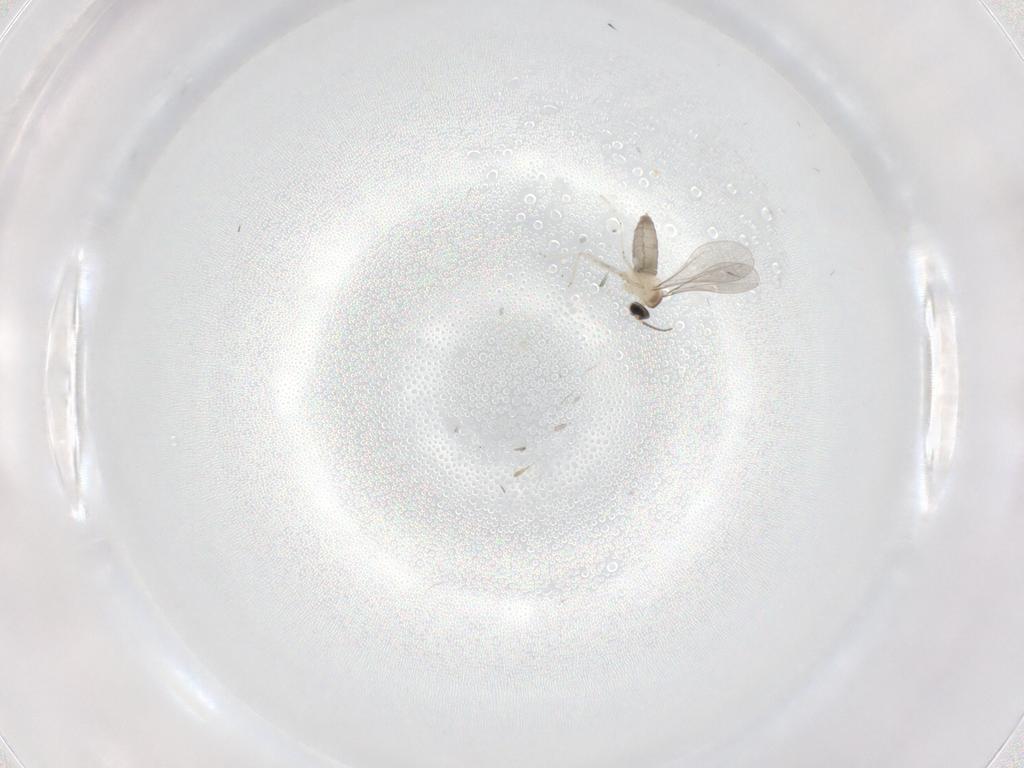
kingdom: Animalia
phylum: Arthropoda
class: Insecta
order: Diptera
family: Cecidomyiidae
